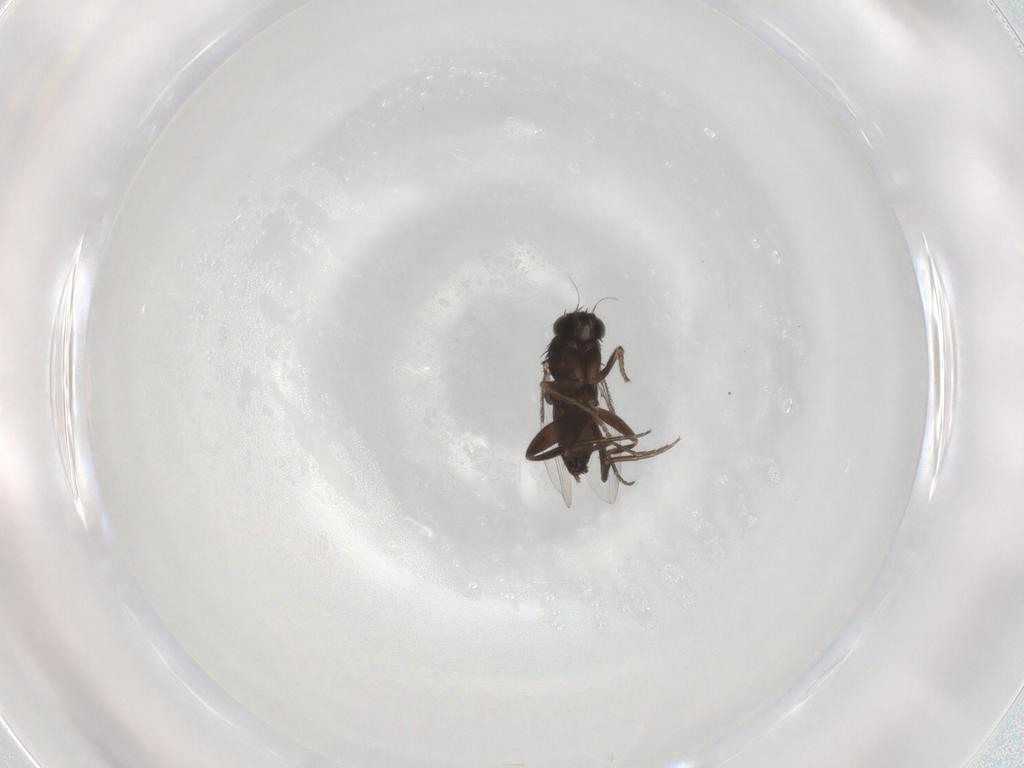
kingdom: Animalia
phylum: Arthropoda
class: Insecta
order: Diptera
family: Phoridae
